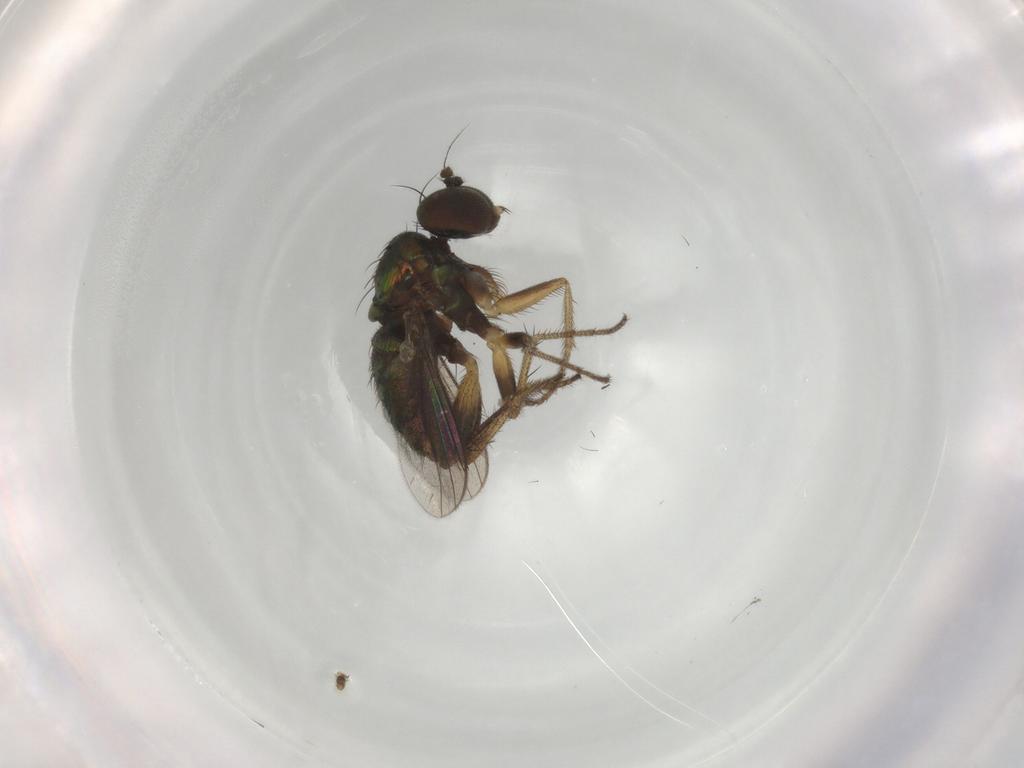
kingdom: Animalia
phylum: Arthropoda
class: Insecta
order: Diptera
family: Dolichopodidae
